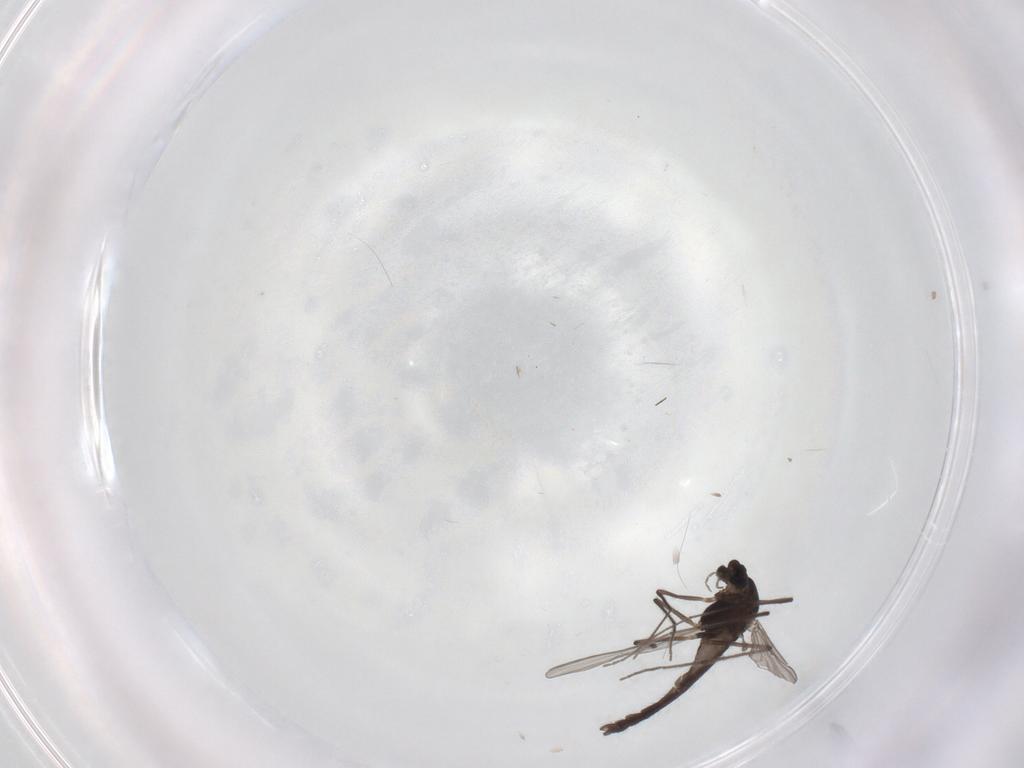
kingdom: Animalia
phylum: Arthropoda
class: Insecta
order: Diptera
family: Chironomidae
